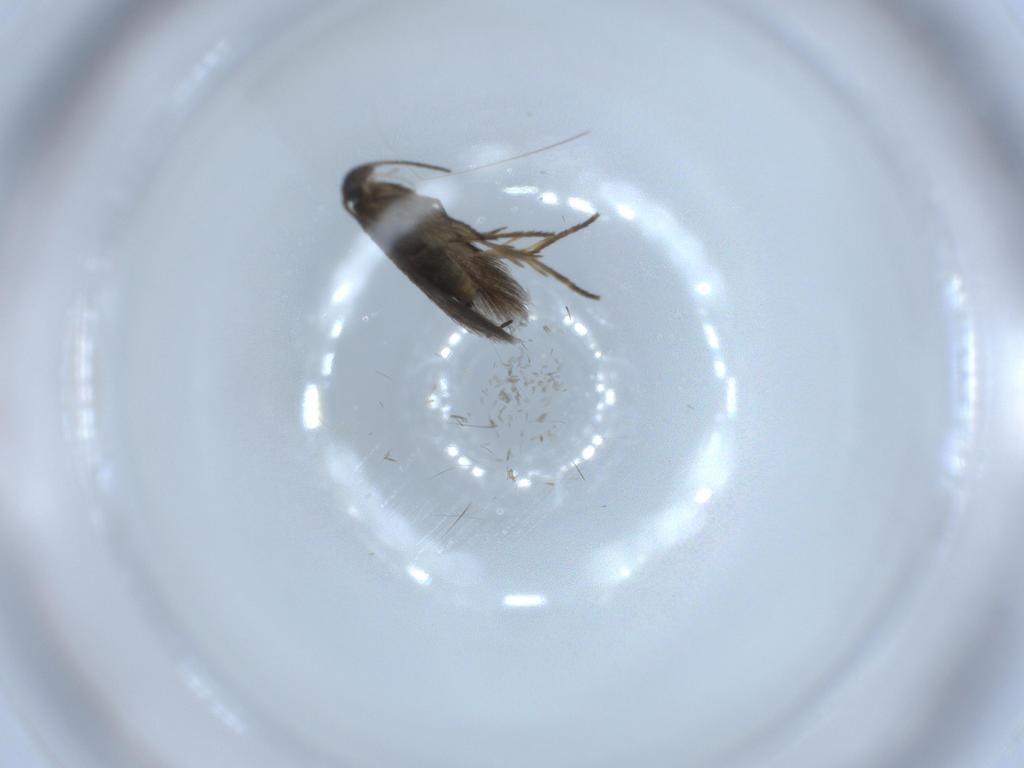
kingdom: Animalia
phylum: Arthropoda
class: Insecta
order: Lepidoptera
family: Heliozelidae
